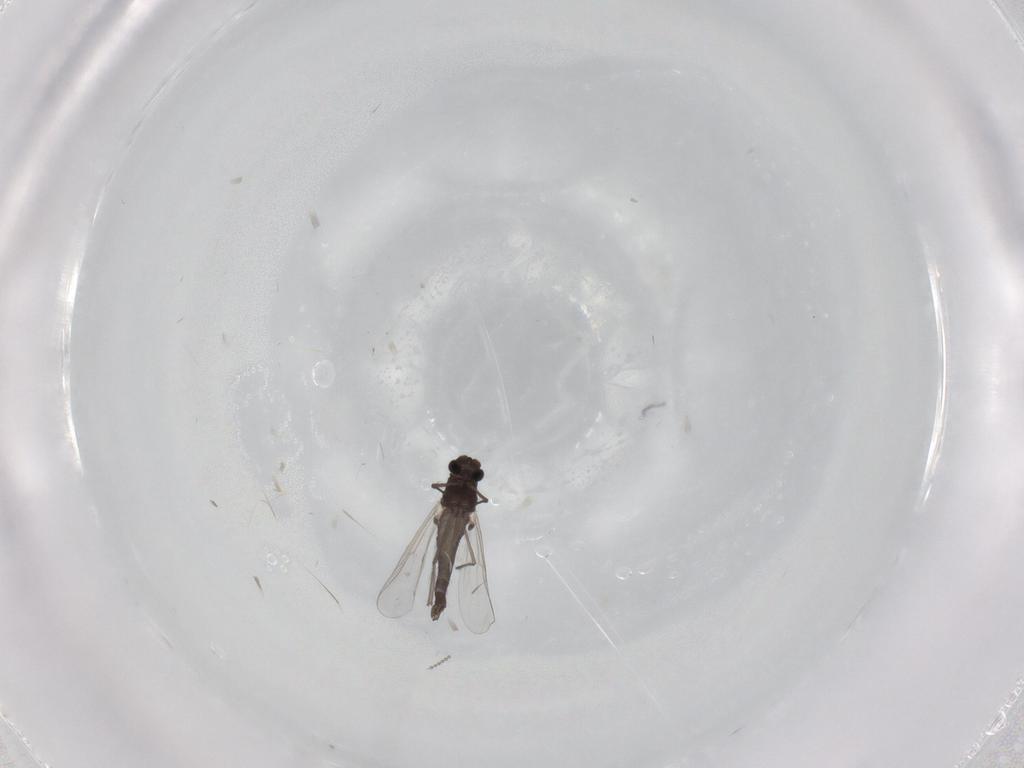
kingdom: Animalia
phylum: Arthropoda
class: Insecta
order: Diptera
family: Chironomidae
